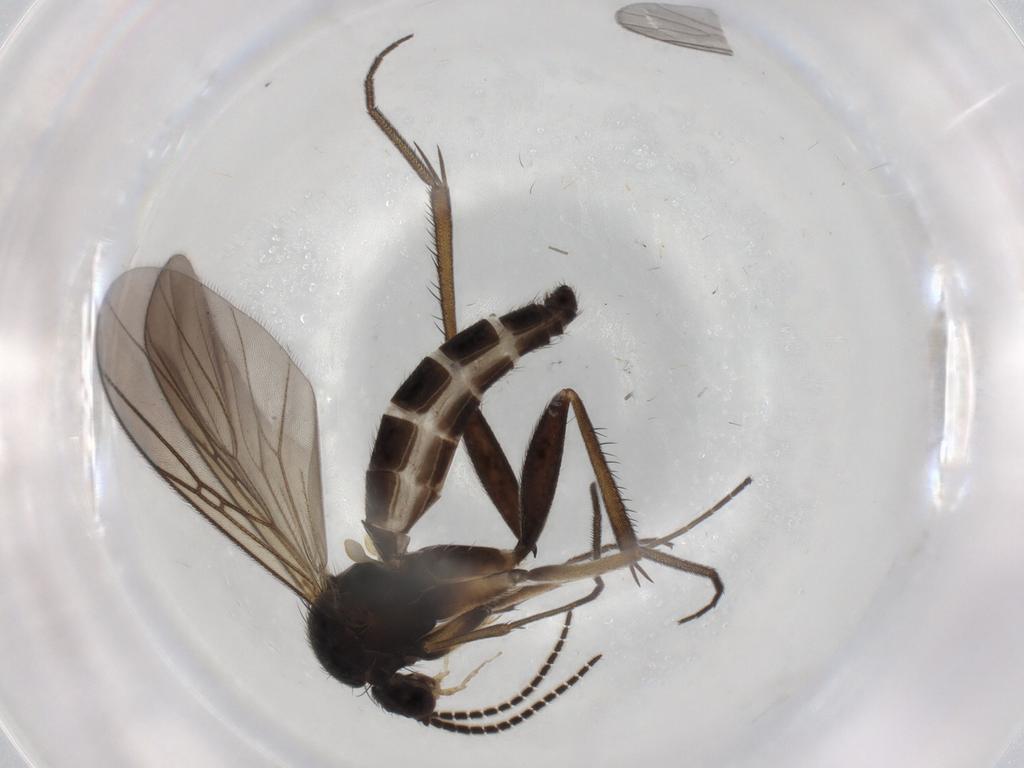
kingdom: Animalia
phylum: Arthropoda
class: Insecta
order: Diptera
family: Mycetophilidae
